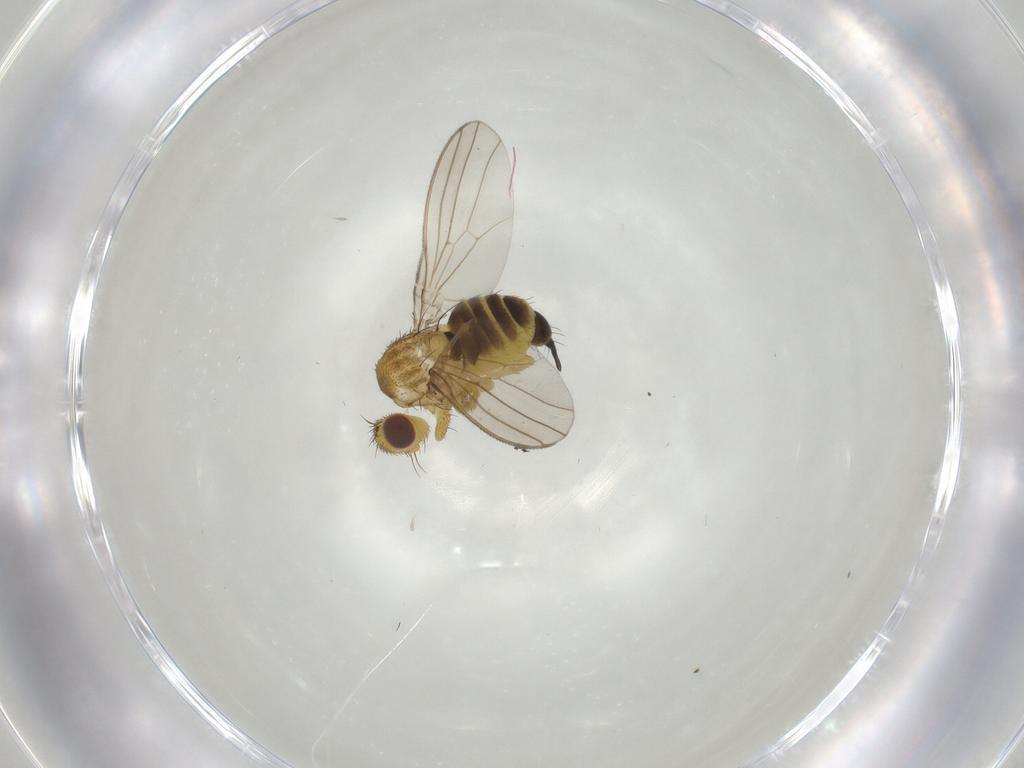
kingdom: Animalia
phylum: Arthropoda
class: Insecta
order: Diptera
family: Fergusoninidae
